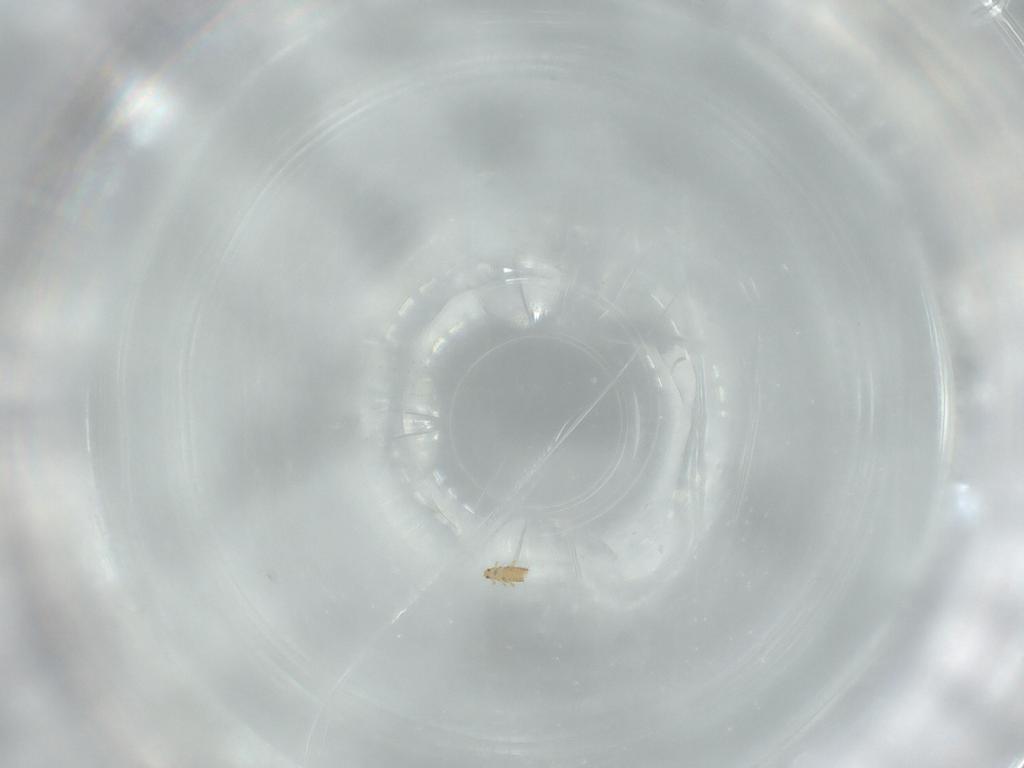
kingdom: Animalia
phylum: Arthropoda
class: Insecta
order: Coleoptera
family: Ripiphoridae
